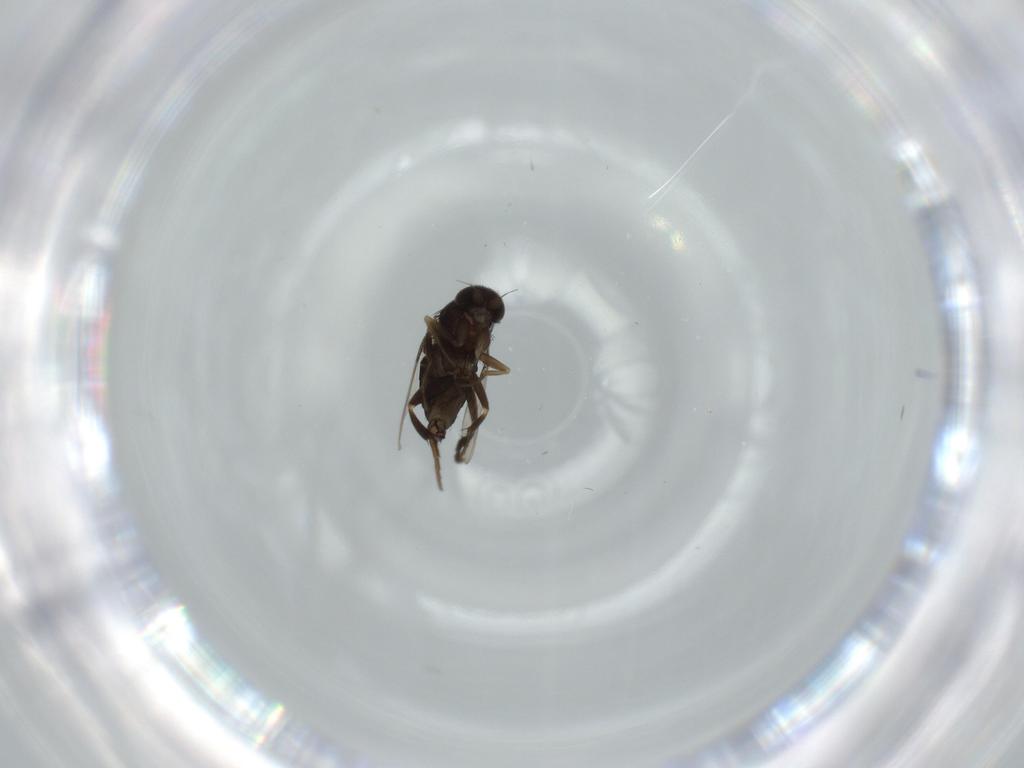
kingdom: Animalia
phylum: Arthropoda
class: Insecta
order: Diptera
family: Phoridae
